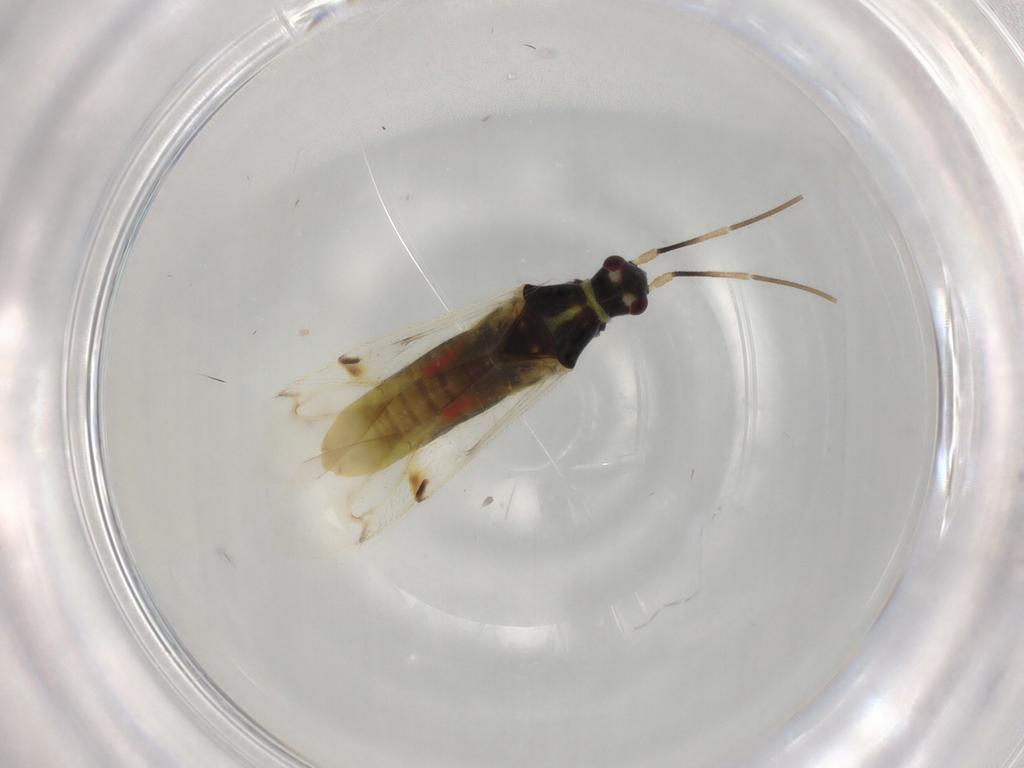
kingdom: Animalia
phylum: Arthropoda
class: Insecta
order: Hemiptera
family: Miridae
